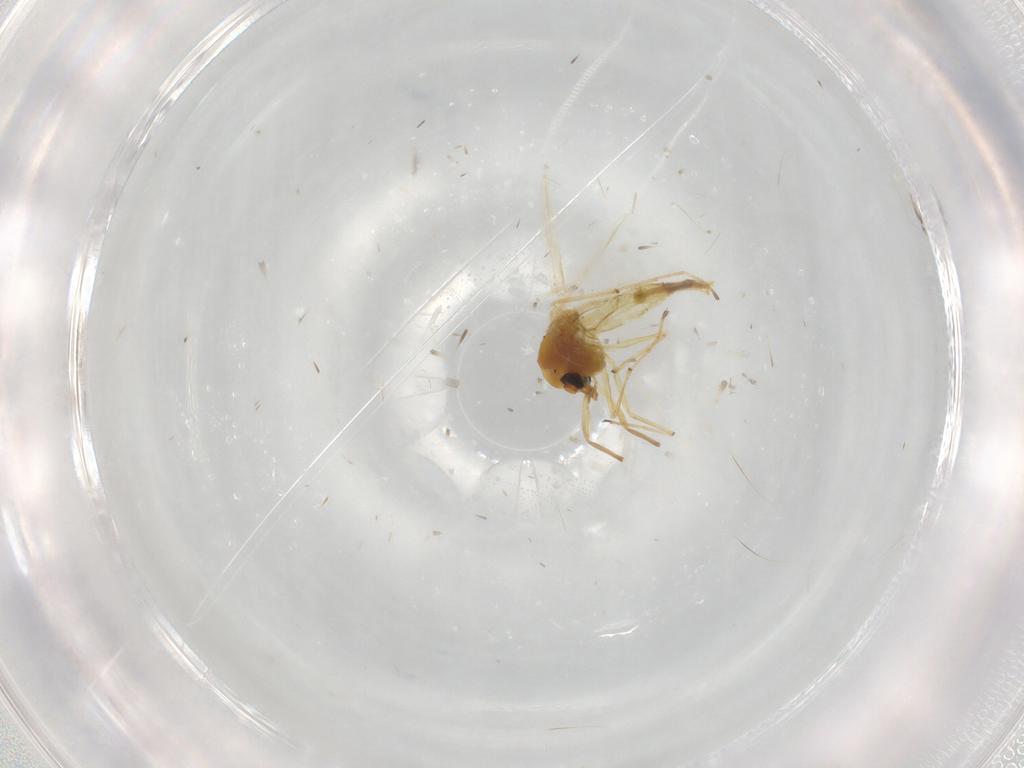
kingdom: Animalia
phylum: Arthropoda
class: Insecta
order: Diptera
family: Chironomidae
